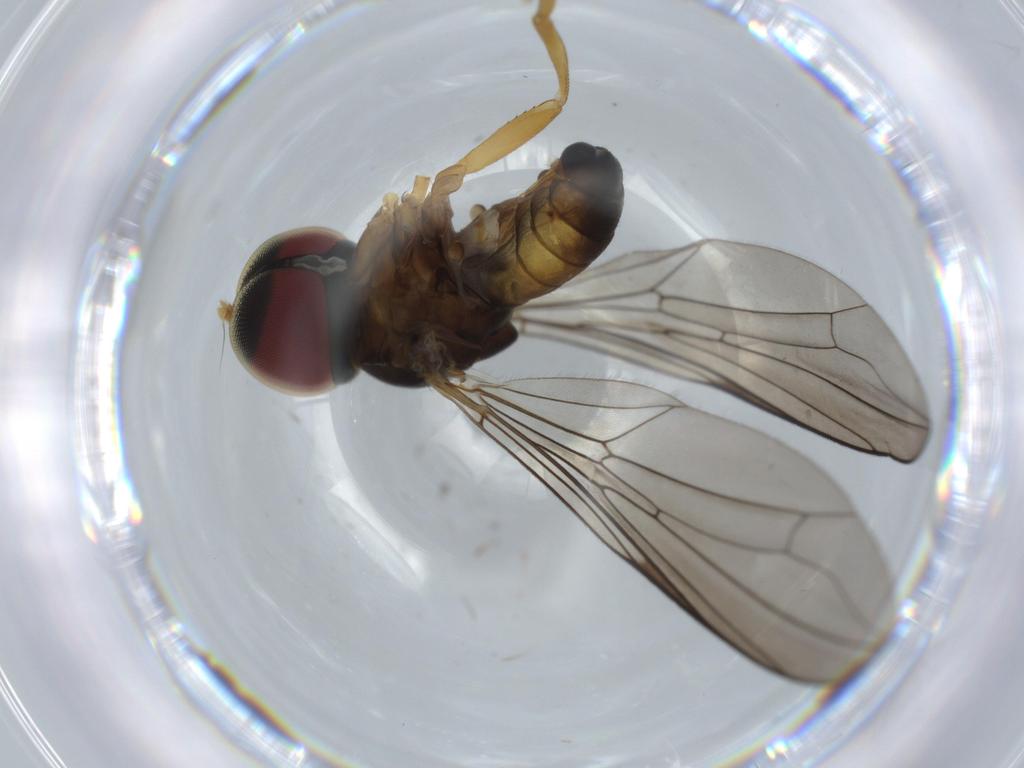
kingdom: Animalia
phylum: Arthropoda
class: Insecta
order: Diptera
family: Pipunculidae
